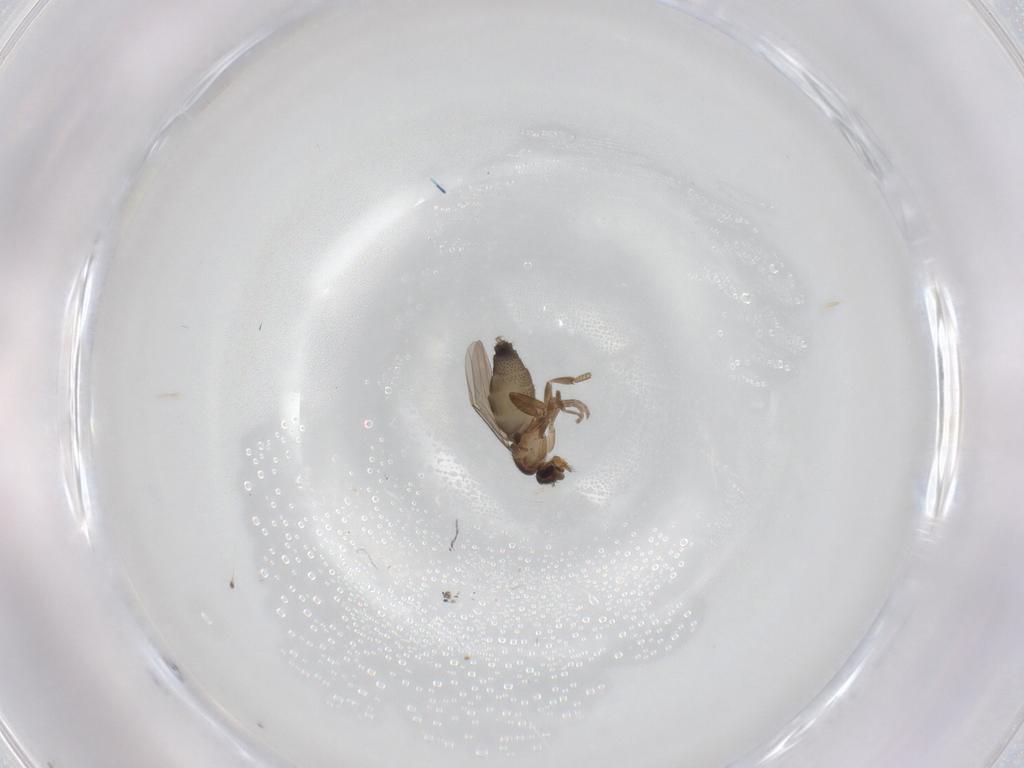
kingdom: Animalia
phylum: Arthropoda
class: Insecta
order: Diptera
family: Phoridae
